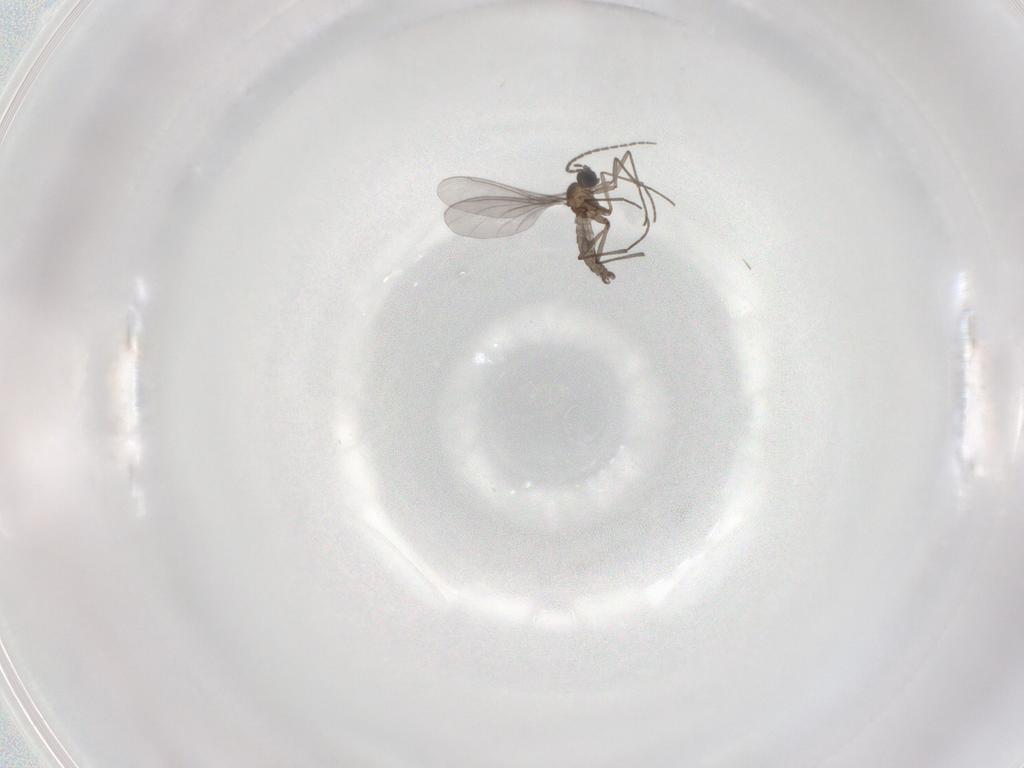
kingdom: Animalia
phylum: Arthropoda
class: Insecta
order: Diptera
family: Sciaridae
